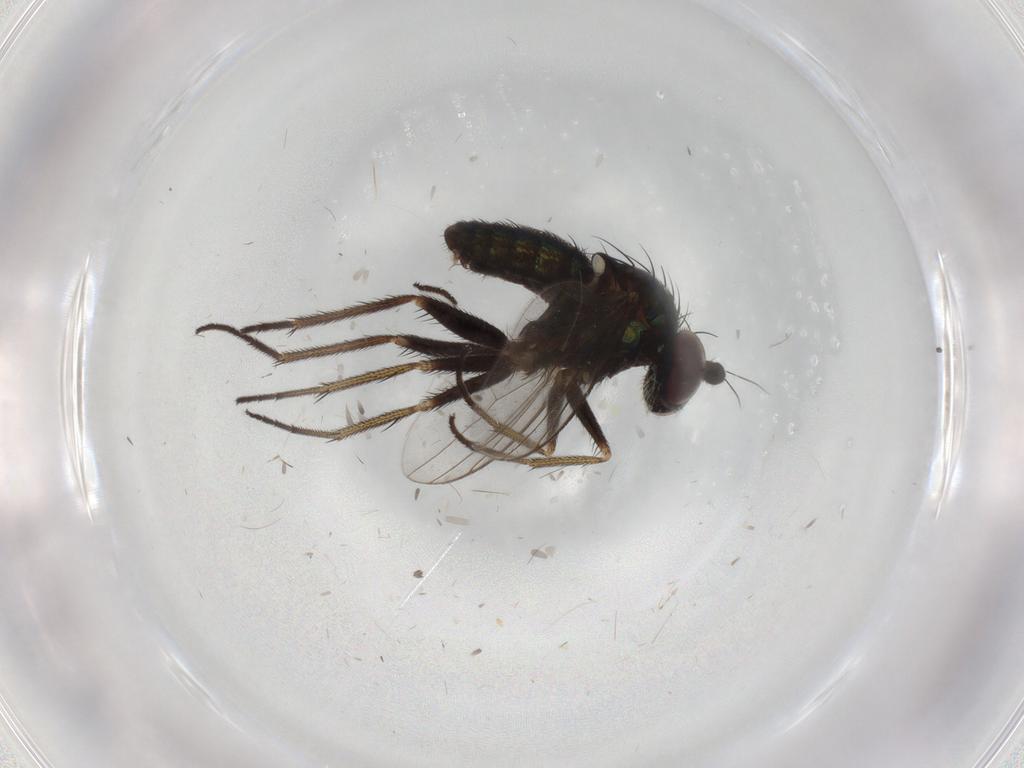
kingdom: Animalia
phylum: Arthropoda
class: Insecta
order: Diptera
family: Dolichopodidae
